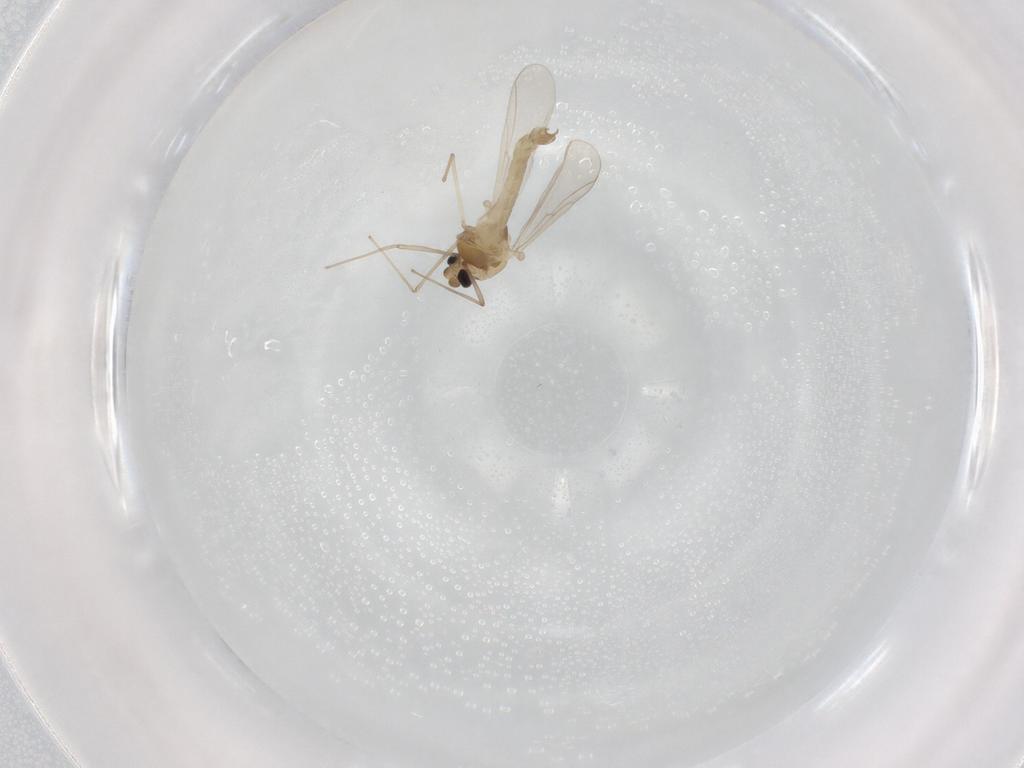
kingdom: Animalia
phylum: Arthropoda
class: Insecta
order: Diptera
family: Chironomidae
